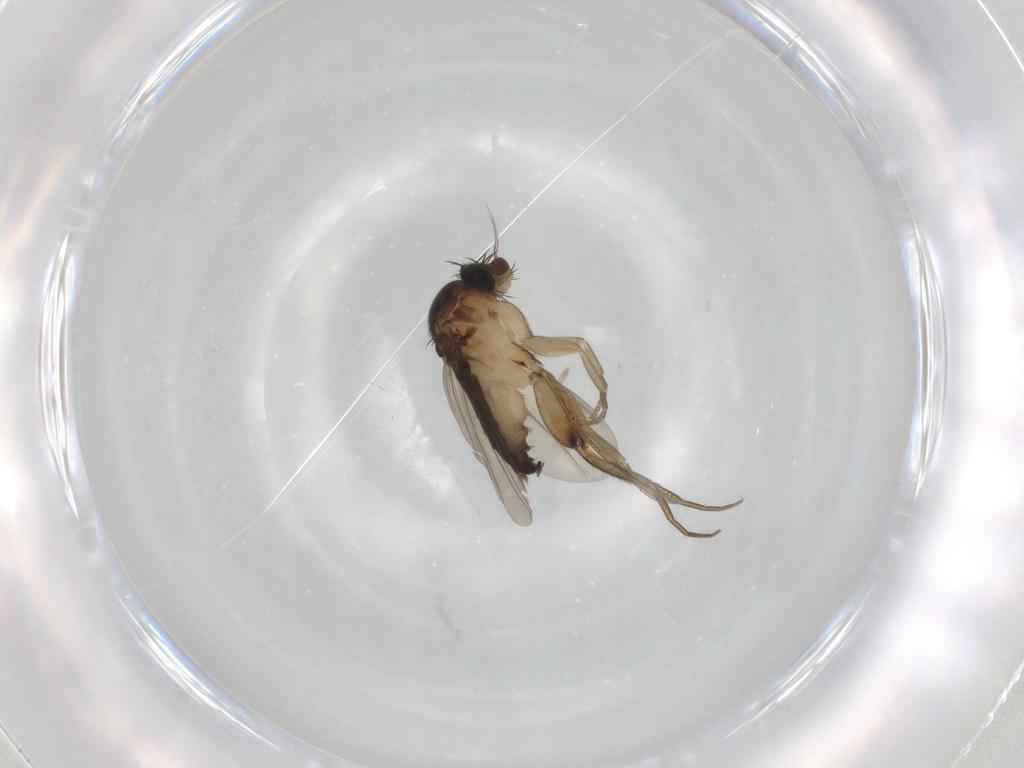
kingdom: Animalia
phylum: Arthropoda
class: Insecta
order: Diptera
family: Phoridae
